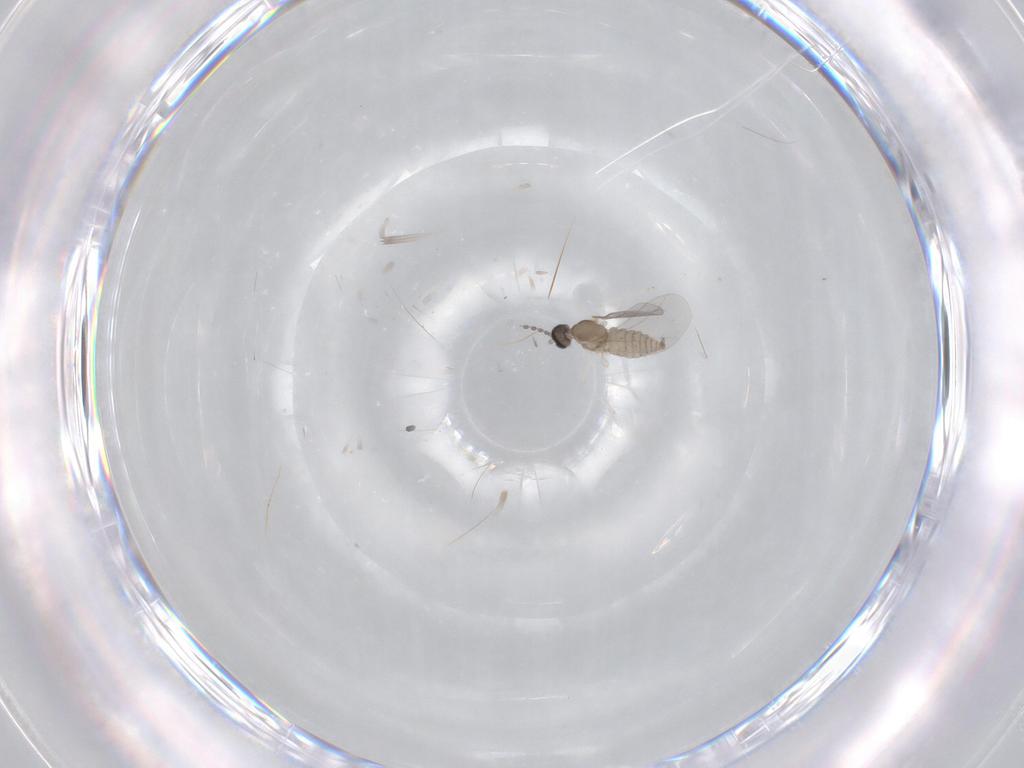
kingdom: Animalia
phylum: Arthropoda
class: Insecta
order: Diptera
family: Cecidomyiidae
